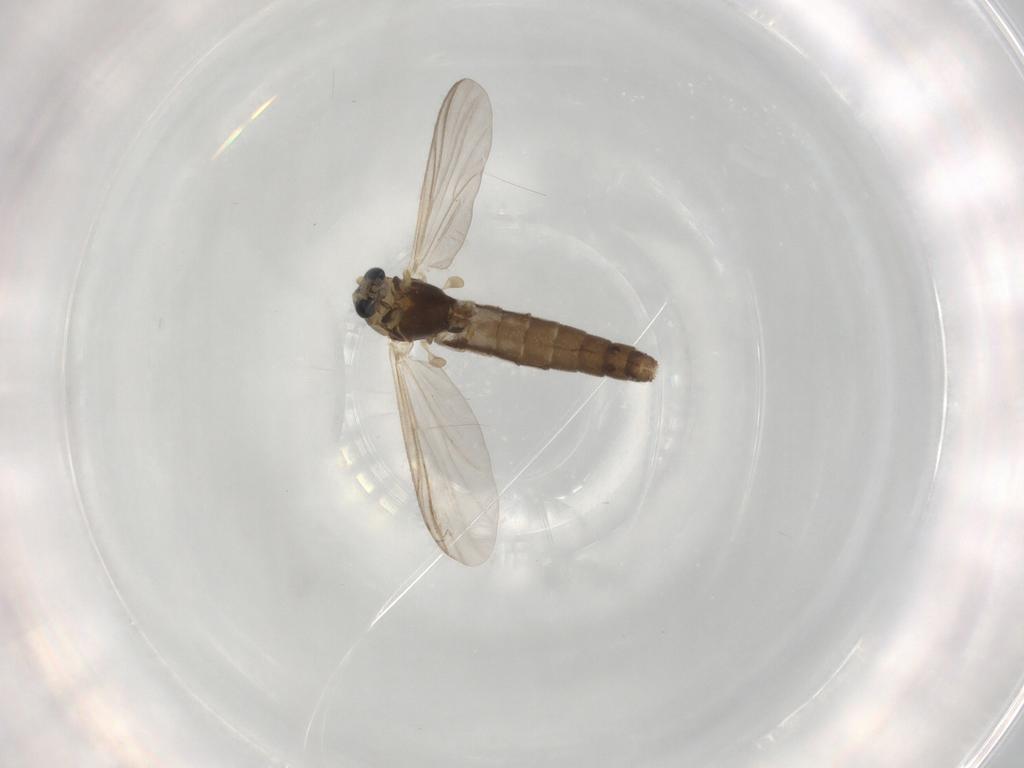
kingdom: Animalia
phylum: Arthropoda
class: Insecta
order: Diptera
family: Chironomidae
